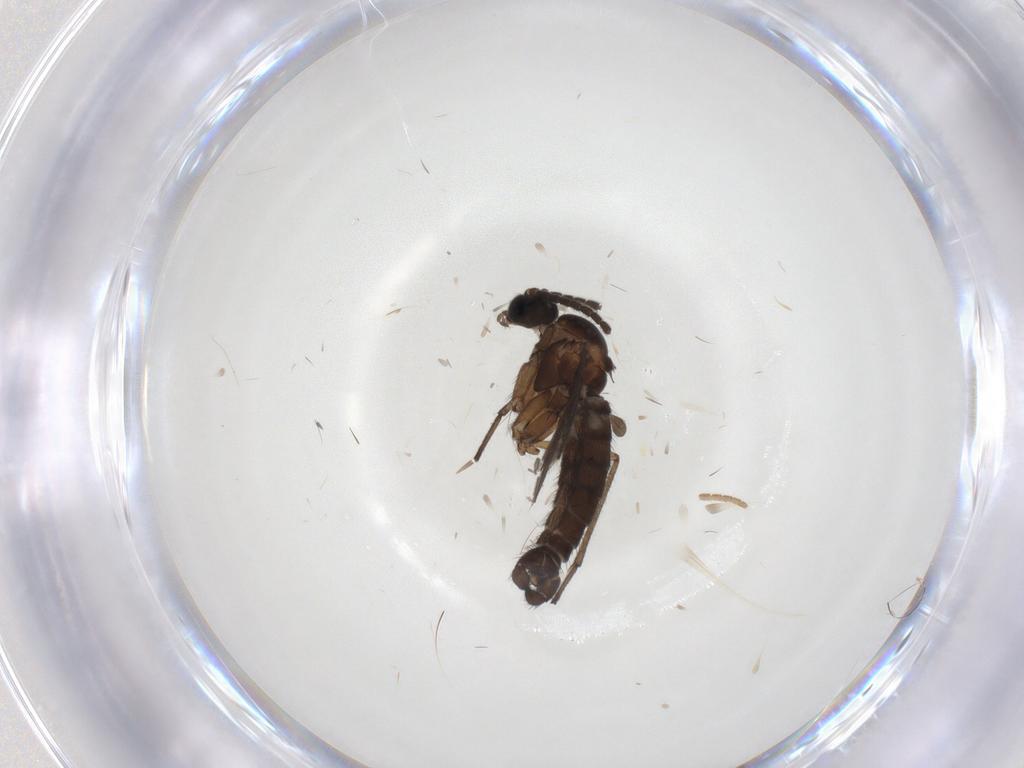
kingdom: Animalia
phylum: Arthropoda
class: Insecta
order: Diptera
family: Sciaridae
